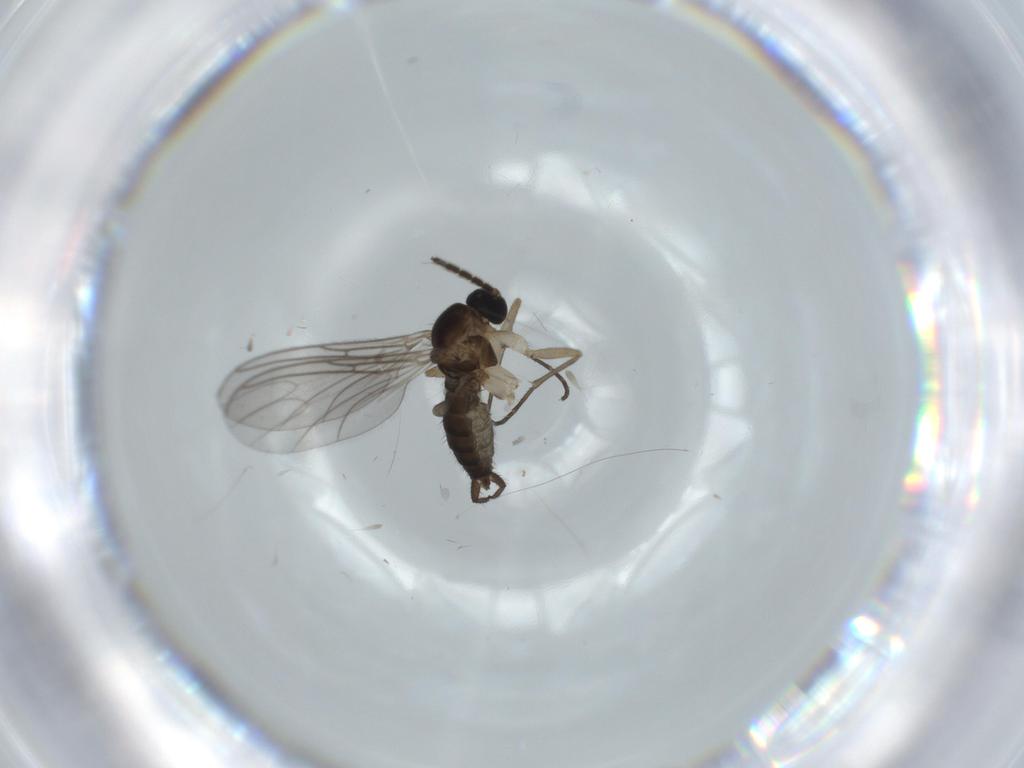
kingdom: Animalia
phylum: Arthropoda
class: Insecta
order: Diptera
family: Sciaridae
